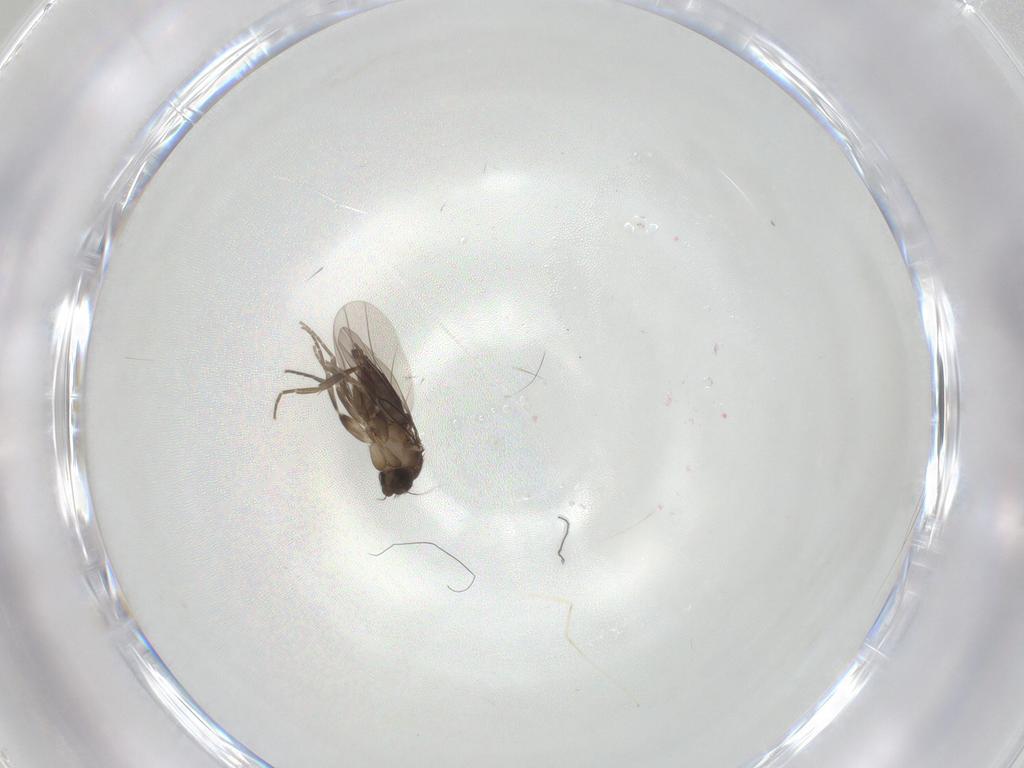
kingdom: Animalia
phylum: Arthropoda
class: Insecta
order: Diptera
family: Phoridae
